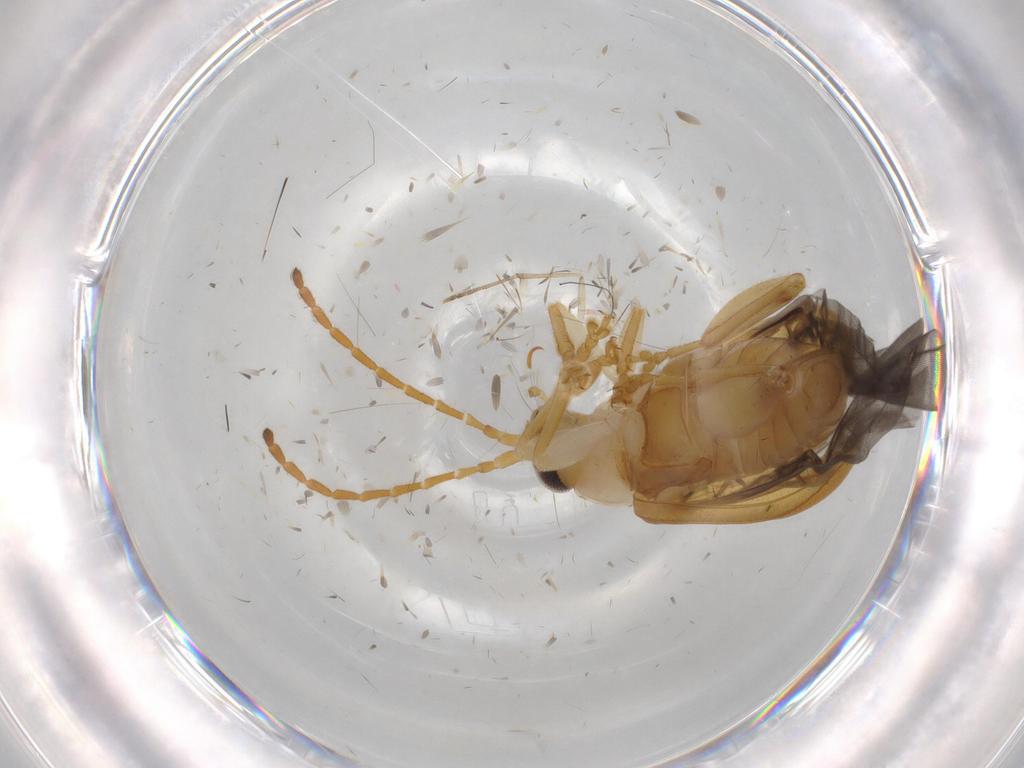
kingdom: Animalia
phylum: Arthropoda
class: Insecta
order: Coleoptera
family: Chrysomelidae
